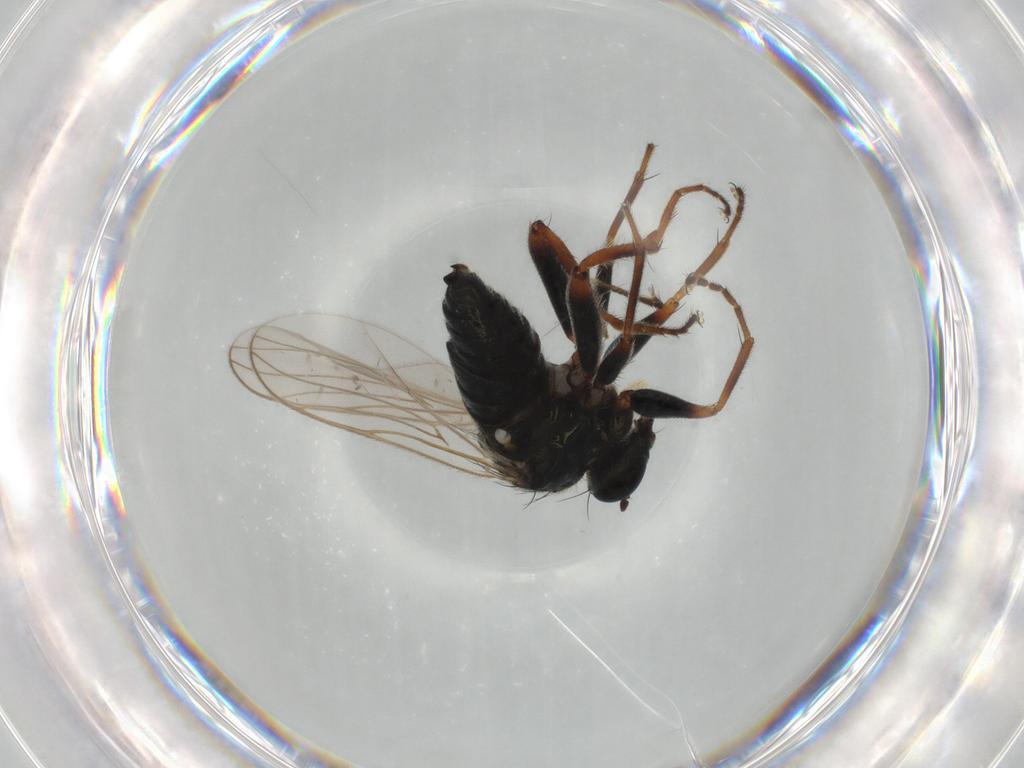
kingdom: Animalia
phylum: Arthropoda
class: Insecta
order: Diptera
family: Hybotidae
